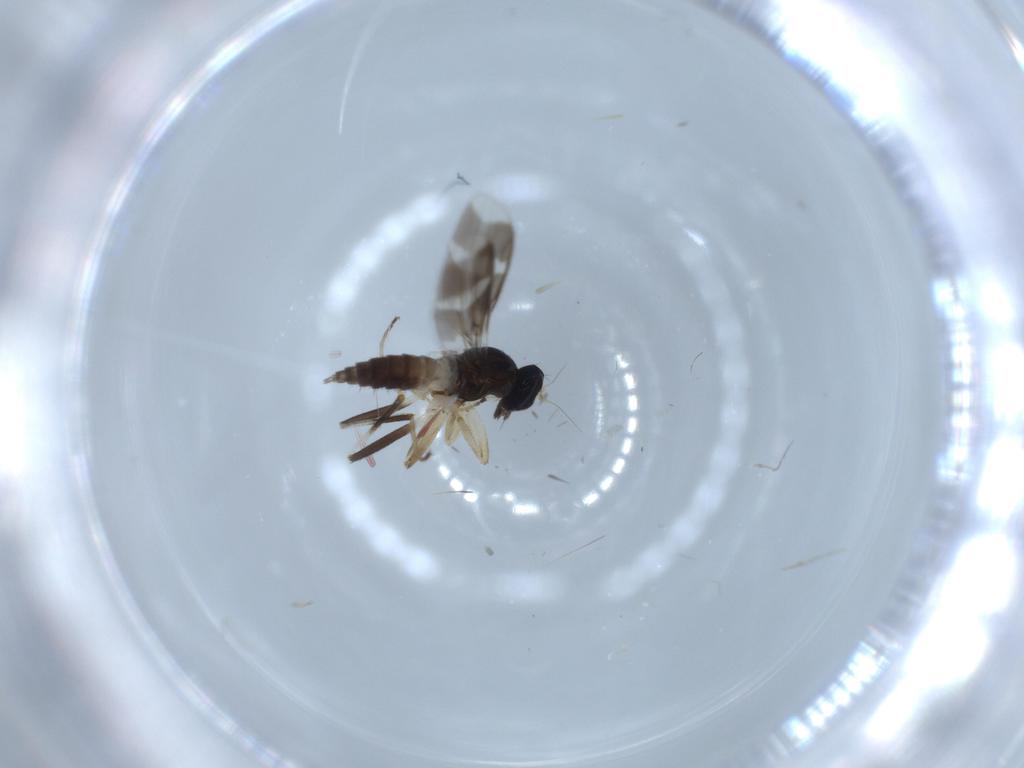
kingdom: Animalia
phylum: Arthropoda
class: Insecta
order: Diptera
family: Hybotidae
